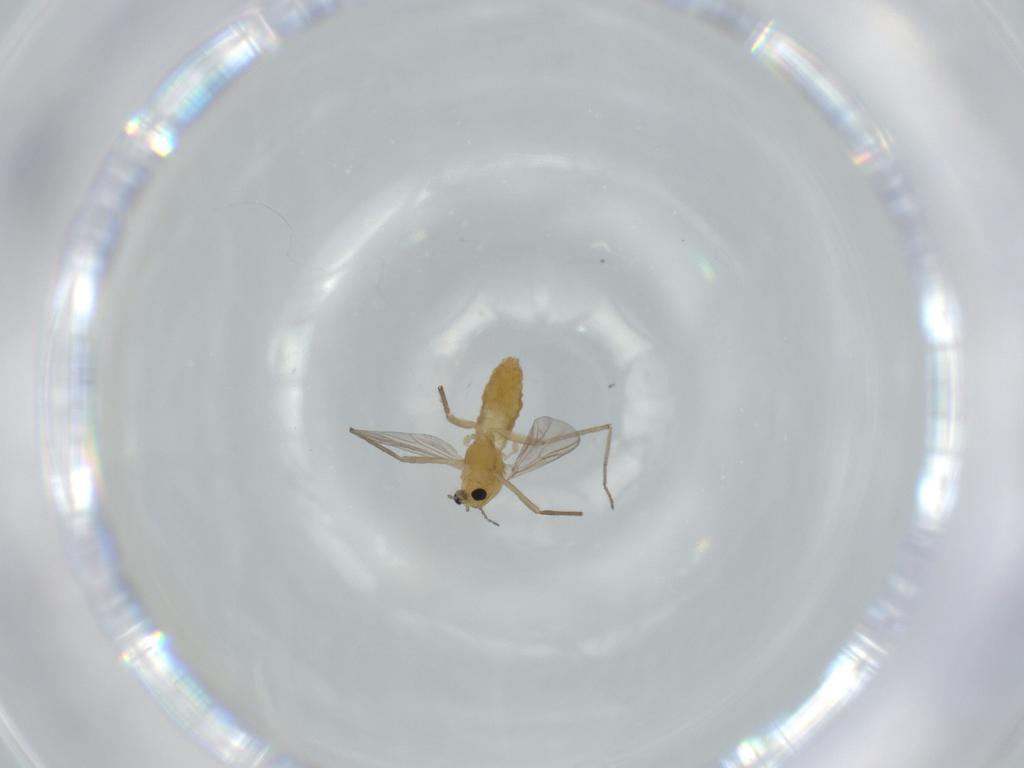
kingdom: Animalia
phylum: Arthropoda
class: Insecta
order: Diptera
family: Chironomidae
